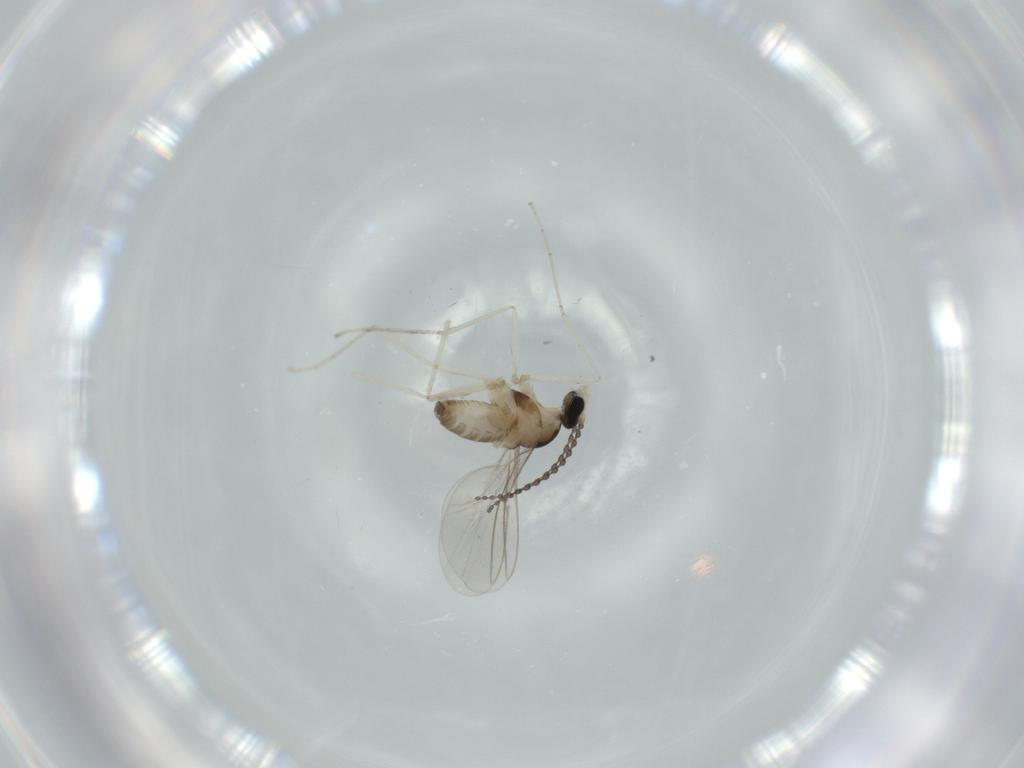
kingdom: Animalia
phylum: Arthropoda
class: Insecta
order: Diptera
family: Cecidomyiidae
